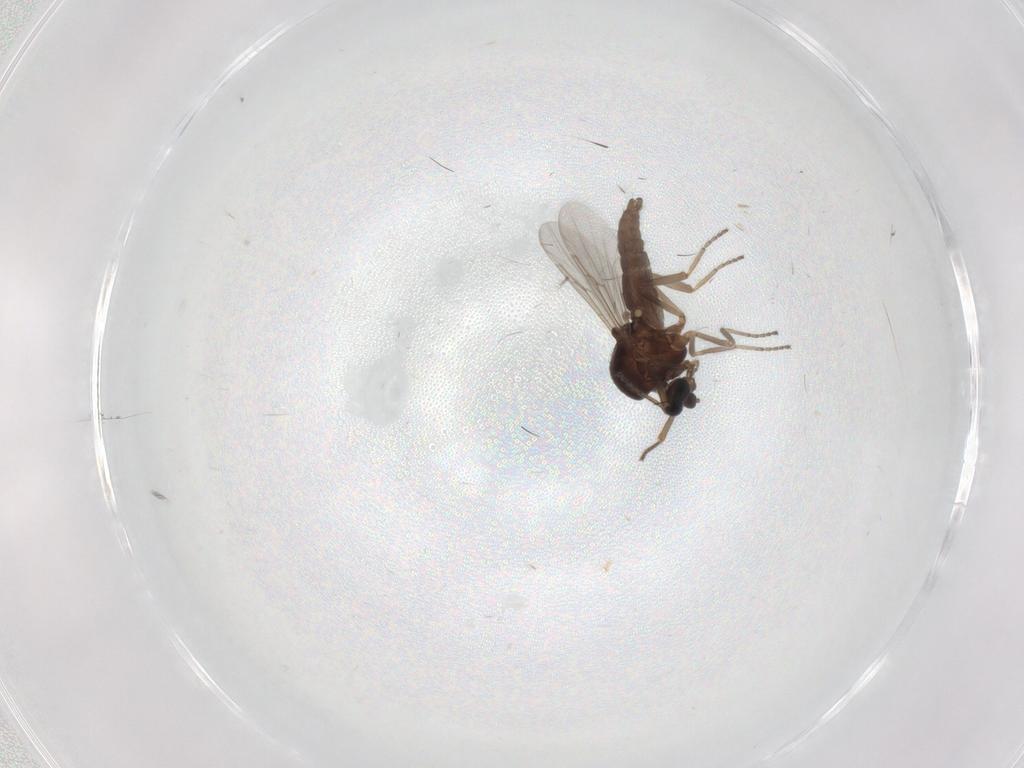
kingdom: Animalia
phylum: Arthropoda
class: Insecta
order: Diptera
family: Ceratopogonidae
